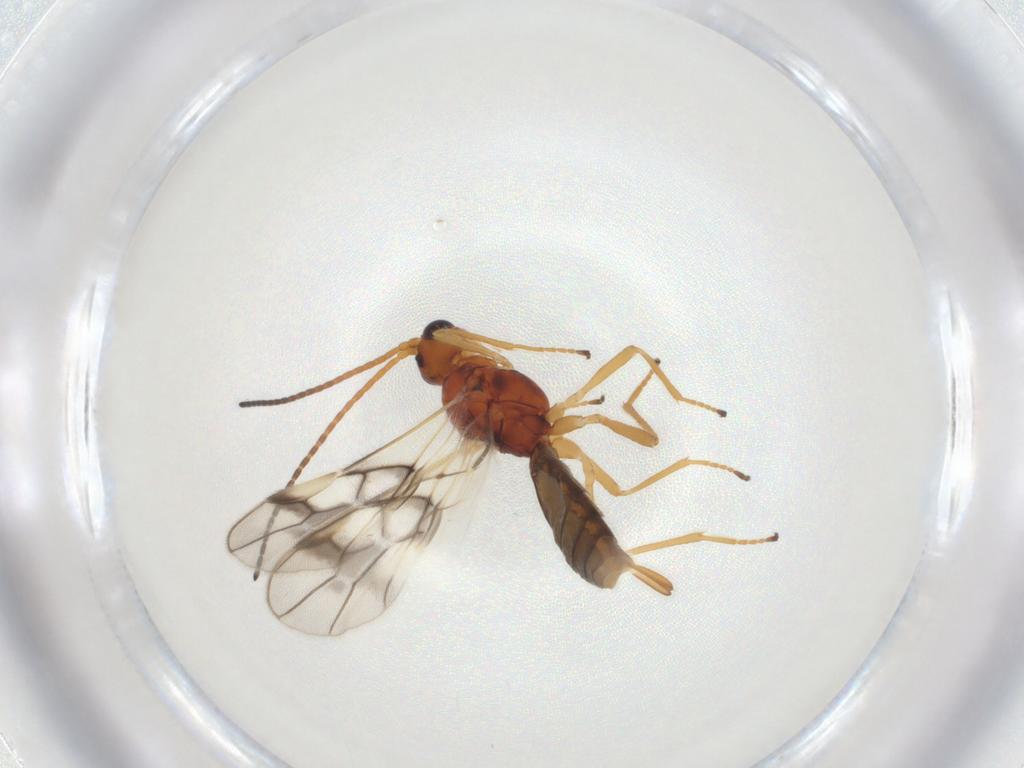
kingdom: Animalia
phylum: Arthropoda
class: Insecta
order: Hymenoptera
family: Braconidae
